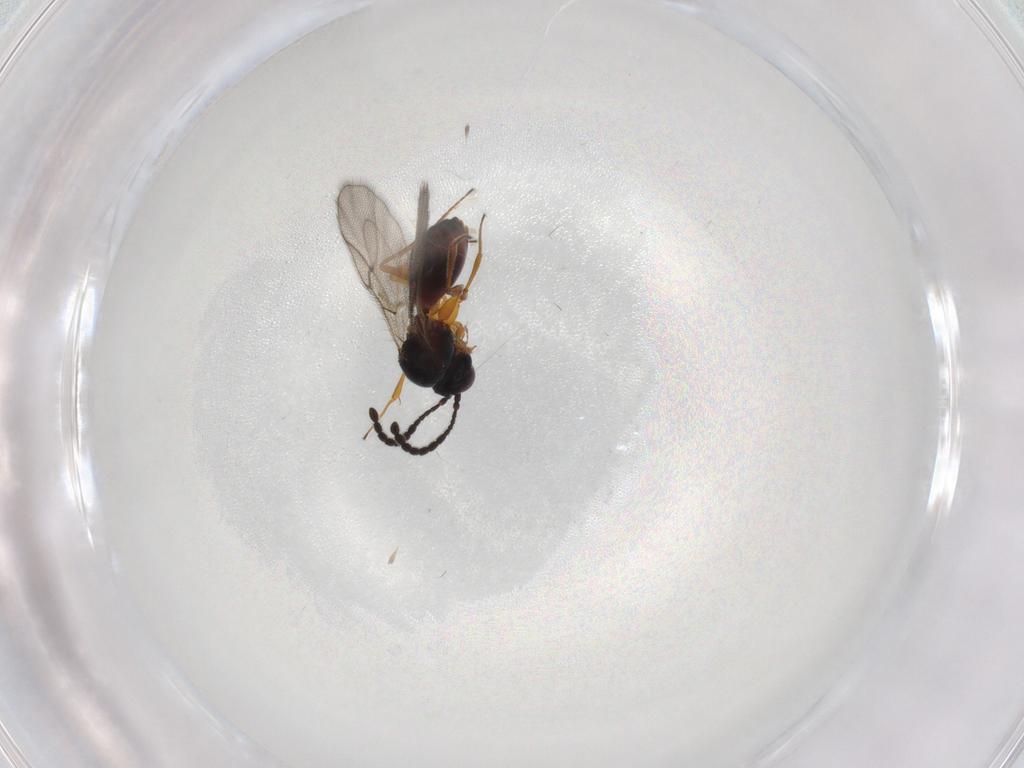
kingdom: Animalia
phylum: Arthropoda
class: Insecta
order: Hymenoptera
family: Figitidae
